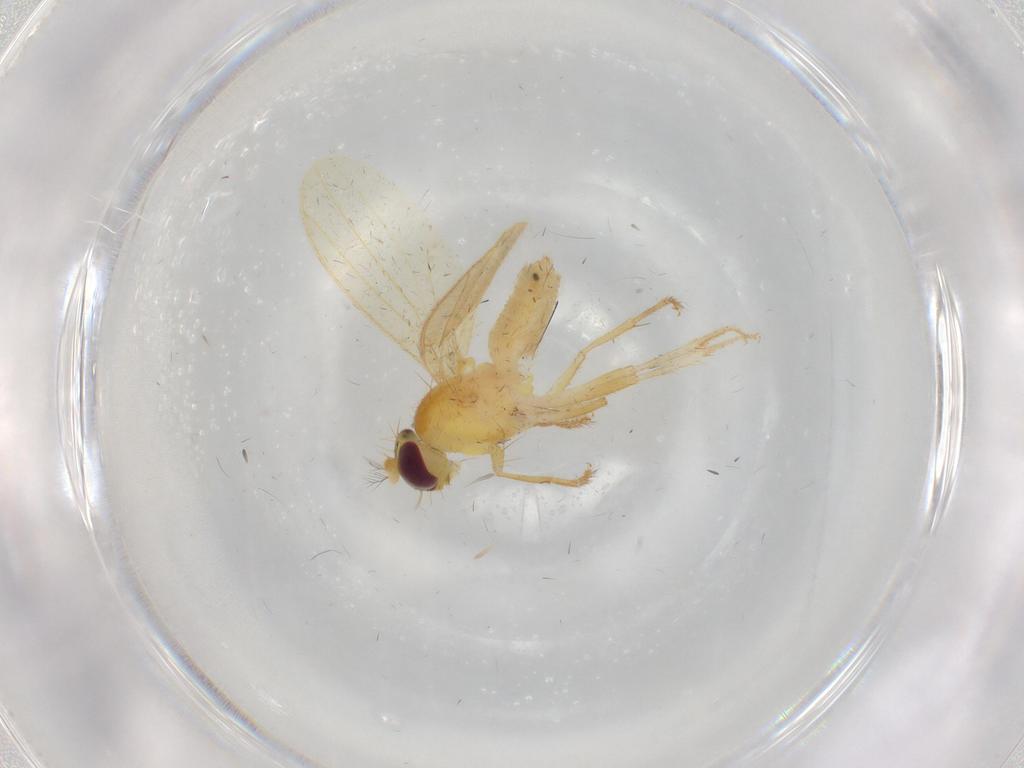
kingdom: Animalia
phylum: Arthropoda
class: Insecta
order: Diptera
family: Periscelididae
